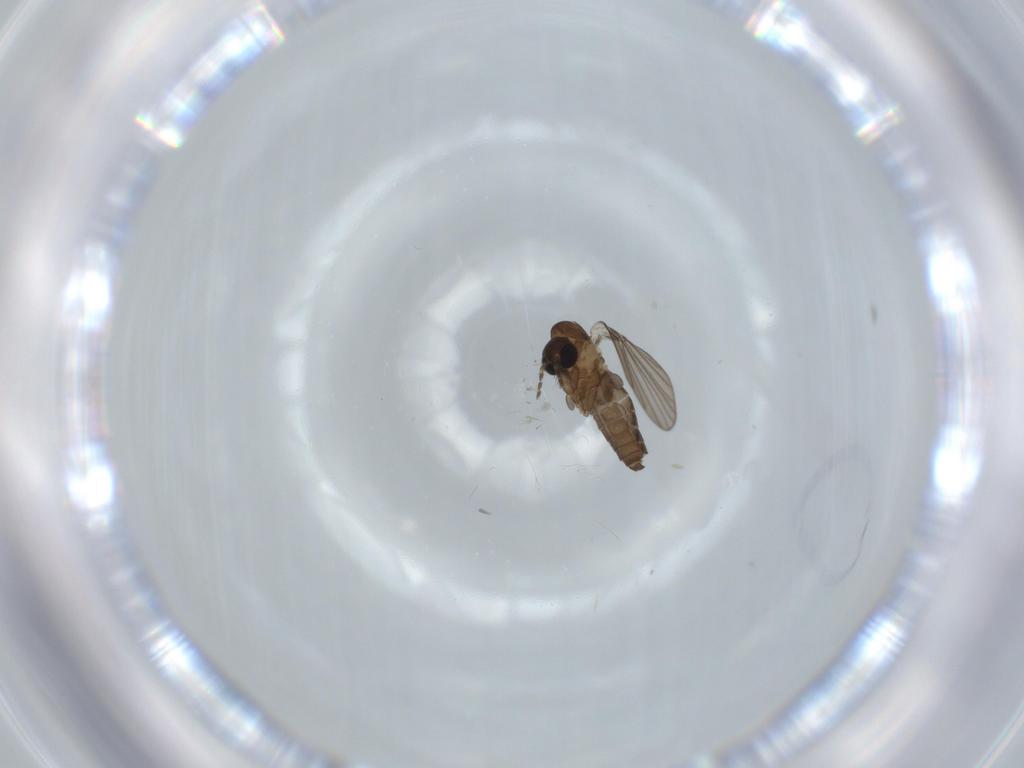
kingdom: Animalia
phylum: Arthropoda
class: Insecta
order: Diptera
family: Psychodidae
